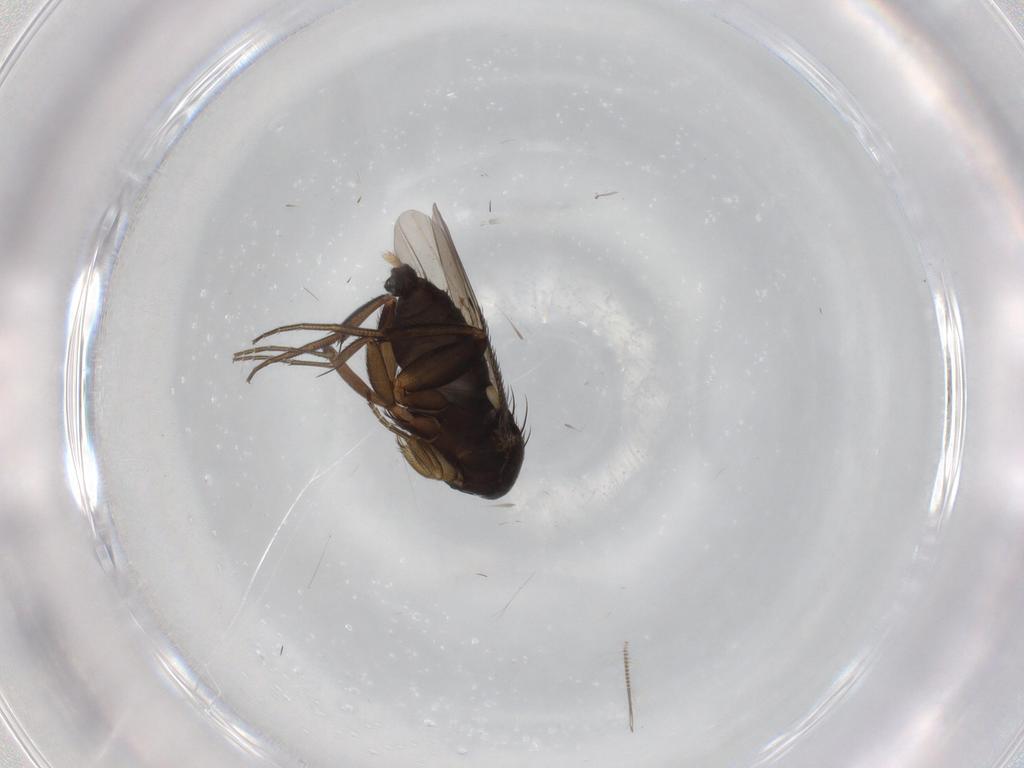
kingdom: Animalia
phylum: Arthropoda
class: Insecta
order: Diptera
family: Phoridae
